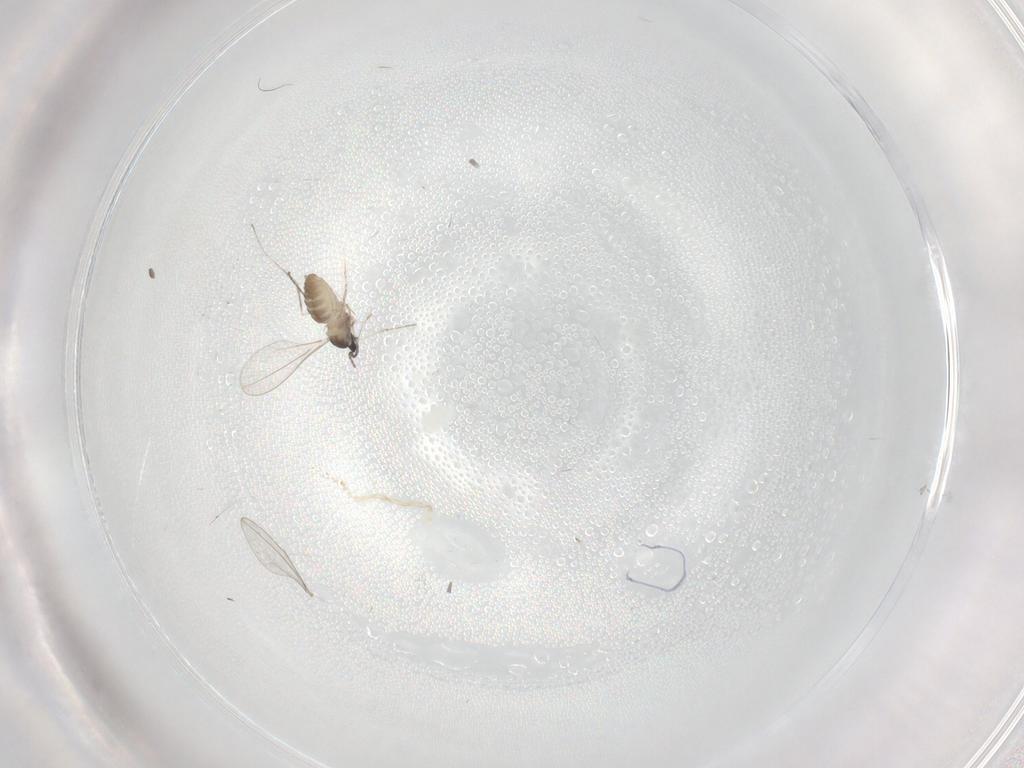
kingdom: Animalia
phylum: Arthropoda
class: Insecta
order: Diptera
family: Cecidomyiidae
